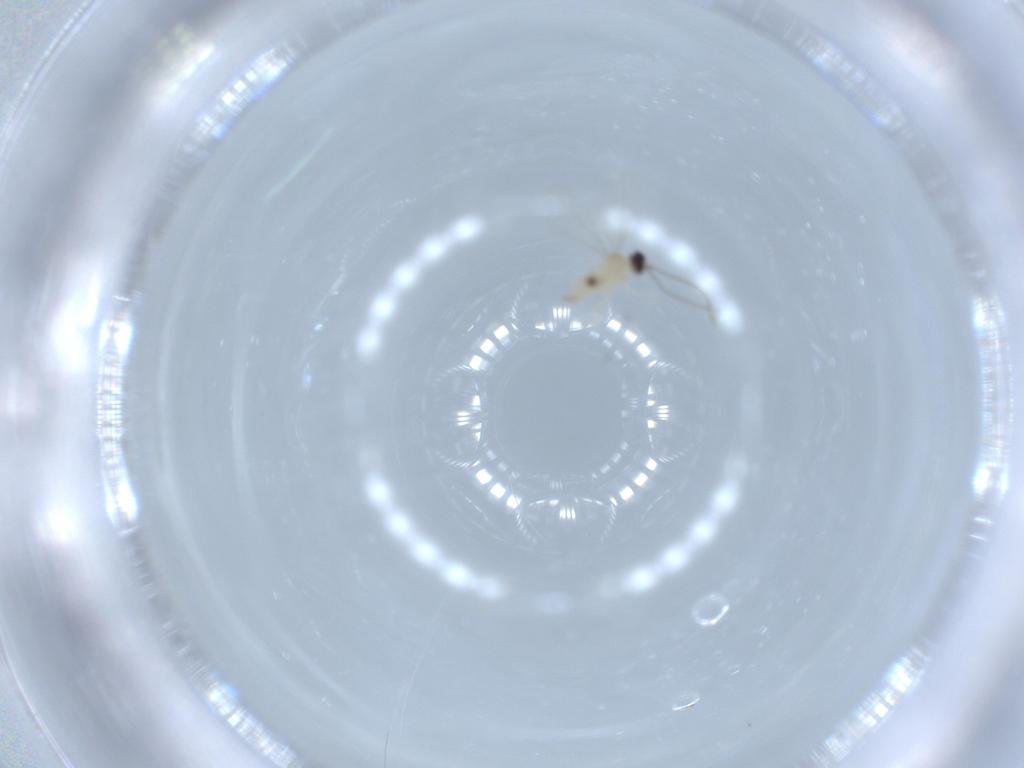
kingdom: Animalia
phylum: Arthropoda
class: Insecta
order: Diptera
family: Cecidomyiidae
